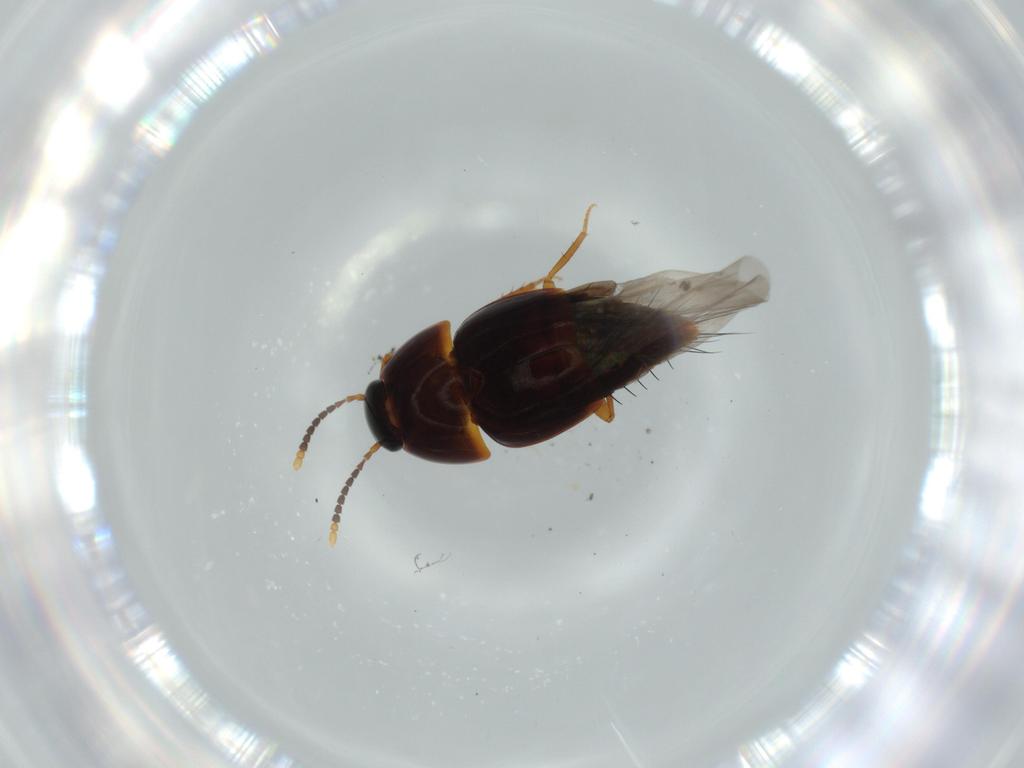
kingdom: Animalia
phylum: Arthropoda
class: Insecta
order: Coleoptera
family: Staphylinidae
